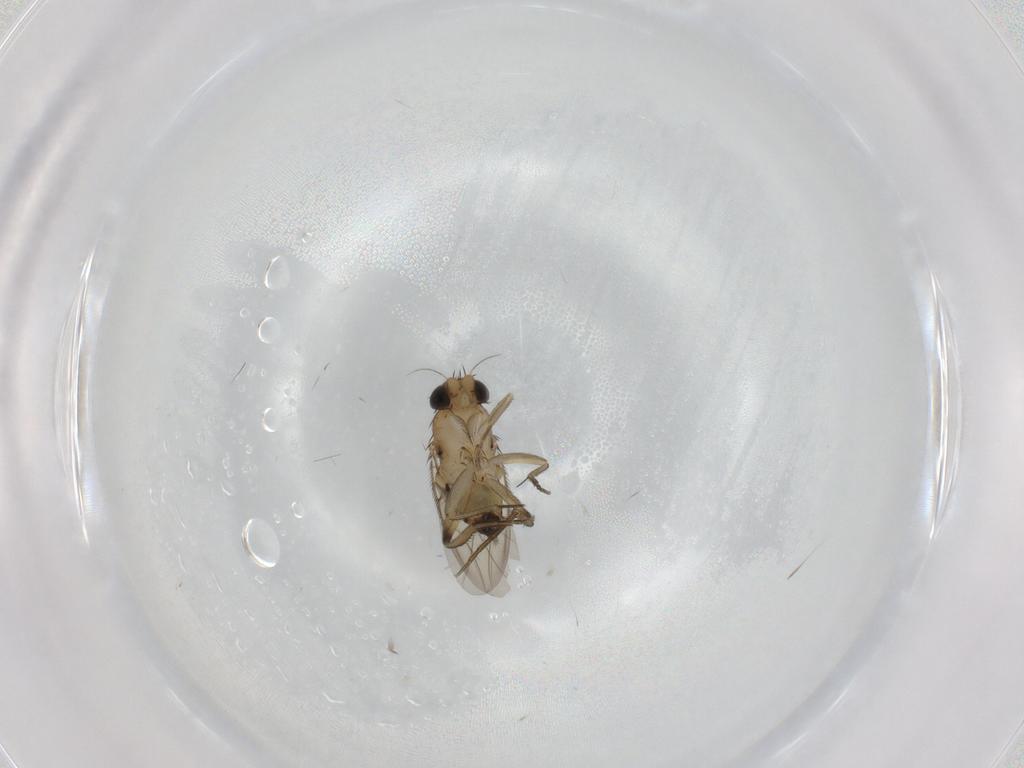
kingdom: Animalia
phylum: Arthropoda
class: Insecta
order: Diptera
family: Phoridae
